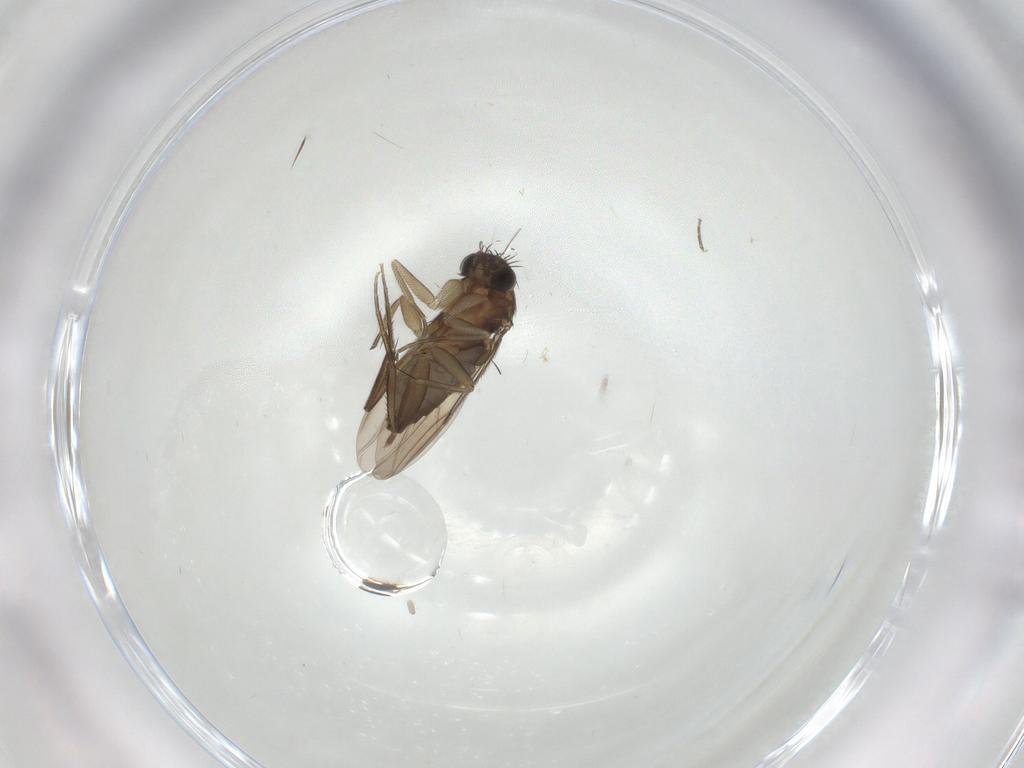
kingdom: Animalia
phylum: Arthropoda
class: Insecta
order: Diptera
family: Phoridae
